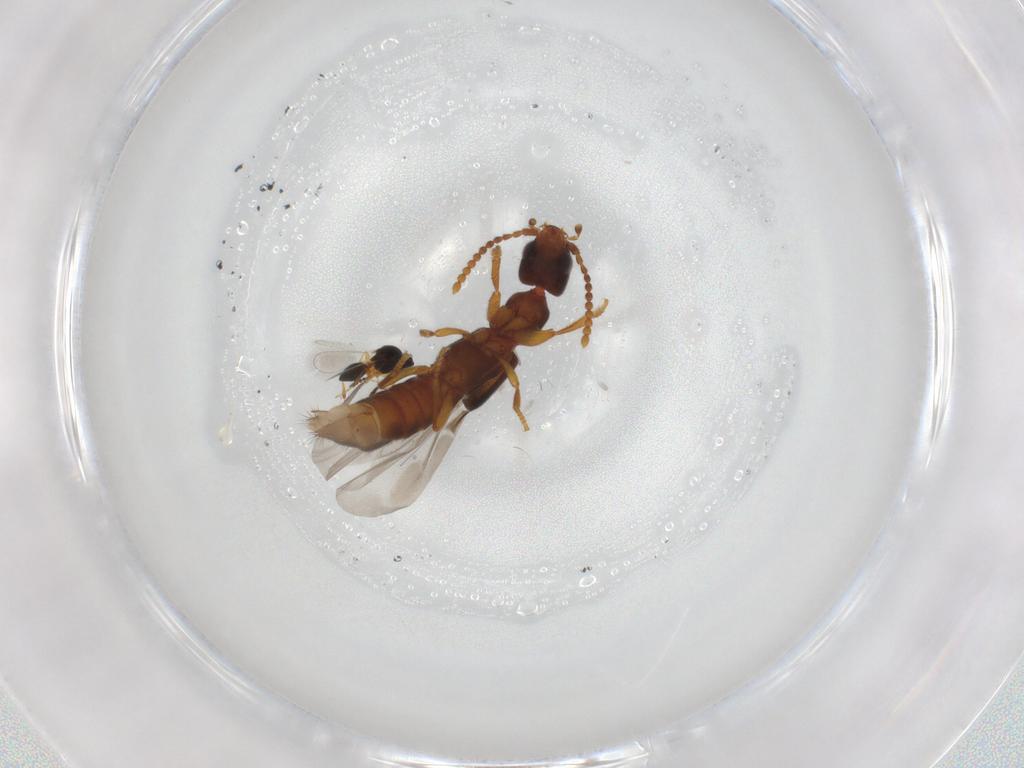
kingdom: Animalia
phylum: Arthropoda
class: Insecta
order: Coleoptera
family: Staphylinidae
